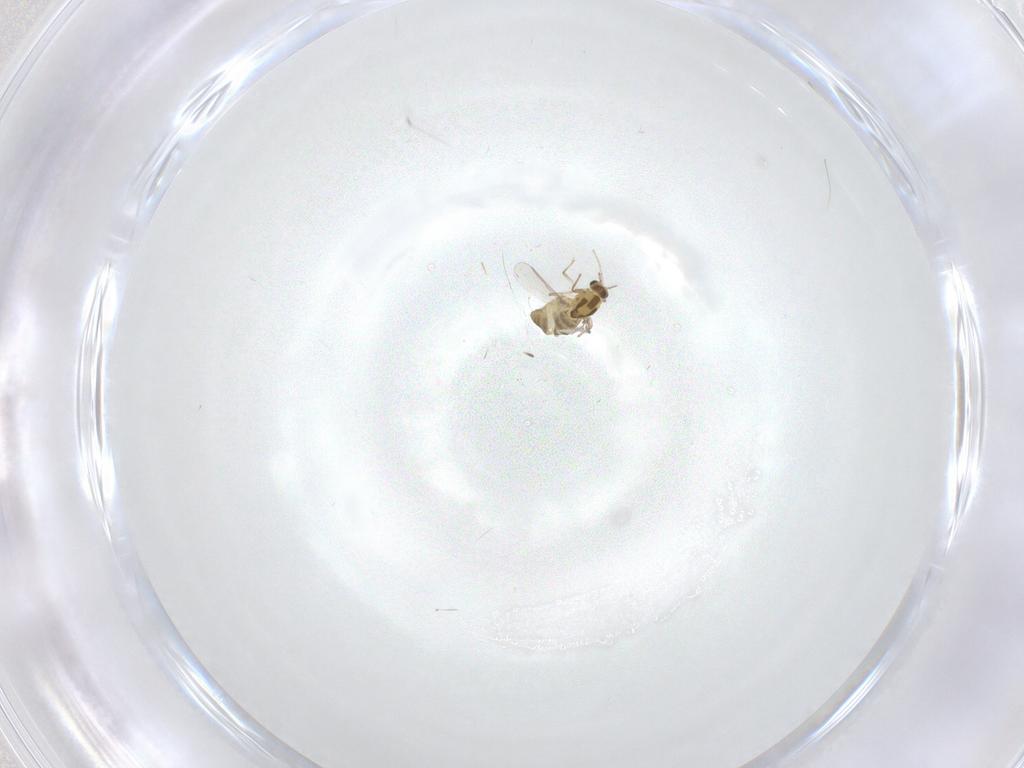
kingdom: Animalia
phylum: Arthropoda
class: Insecta
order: Diptera
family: Chironomidae
